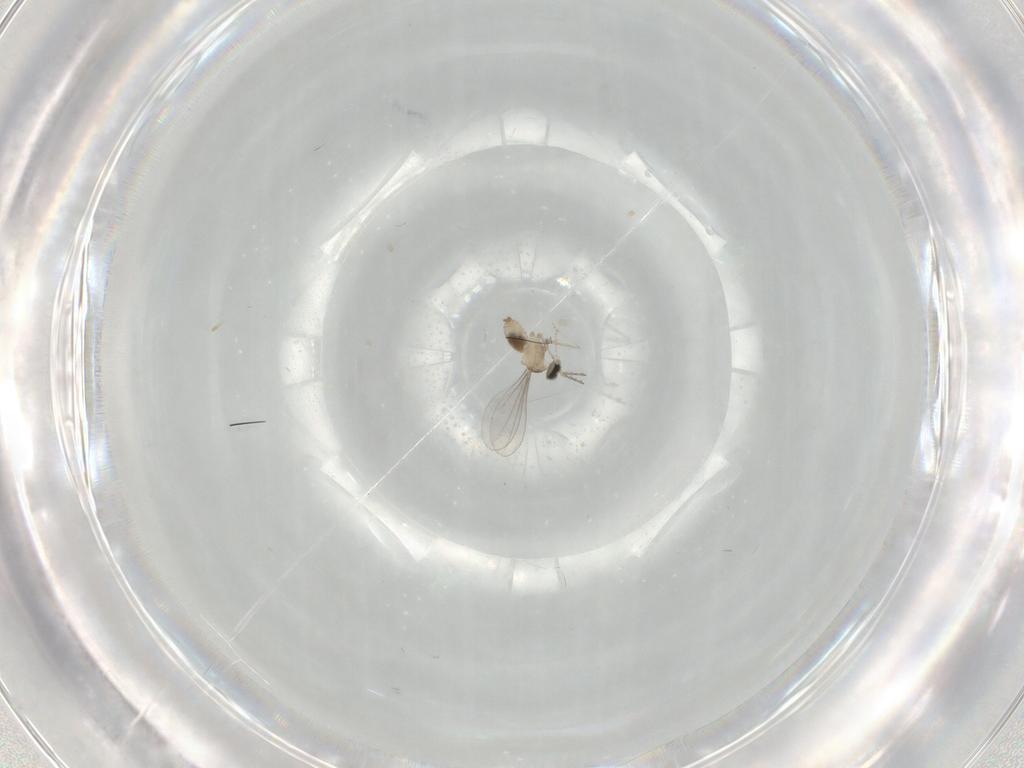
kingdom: Animalia
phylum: Arthropoda
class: Insecta
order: Diptera
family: Cecidomyiidae
